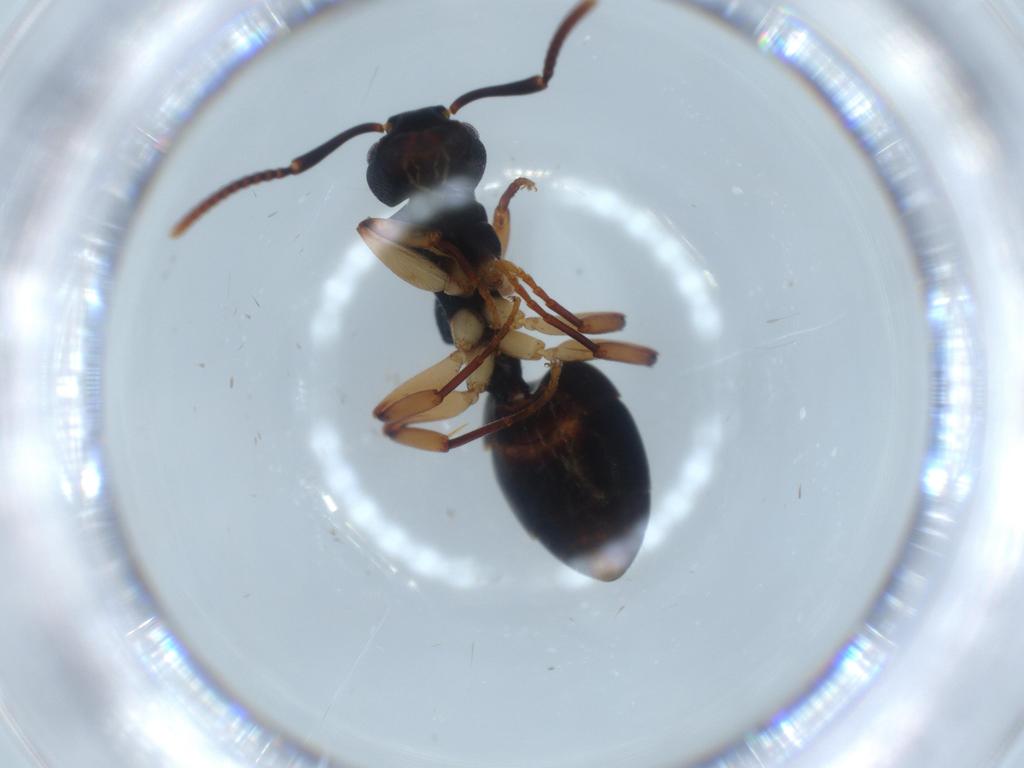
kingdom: Animalia
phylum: Arthropoda
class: Insecta
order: Hymenoptera
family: Formicidae
